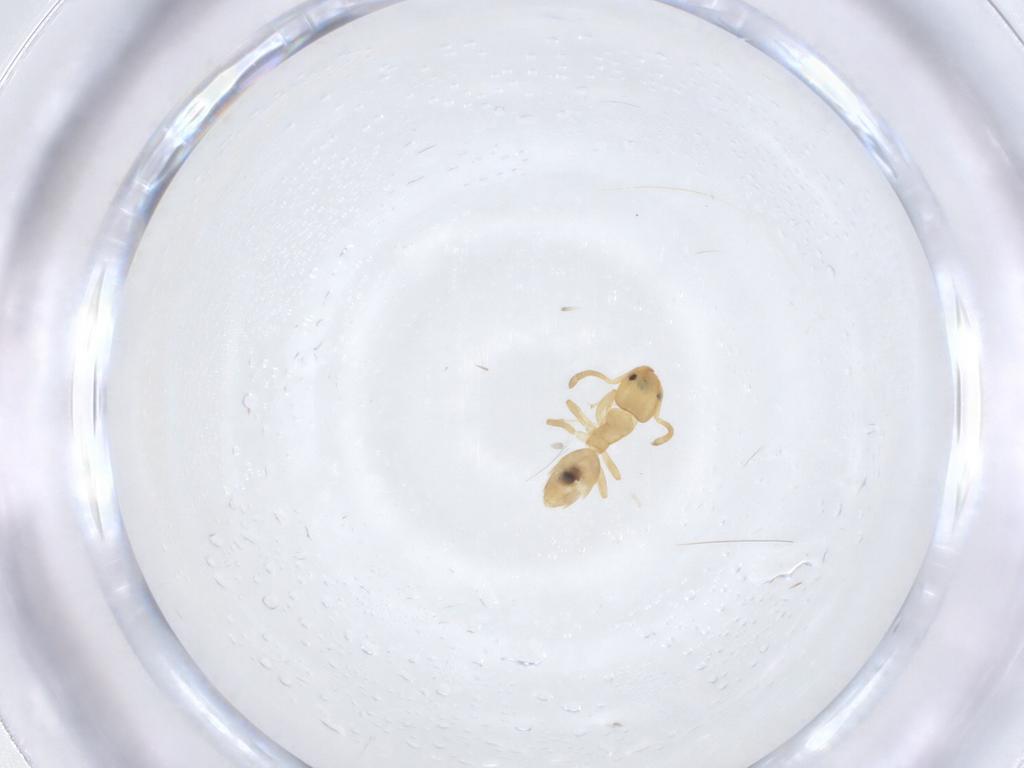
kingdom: Animalia
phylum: Arthropoda
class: Insecta
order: Hymenoptera
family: Formicidae
